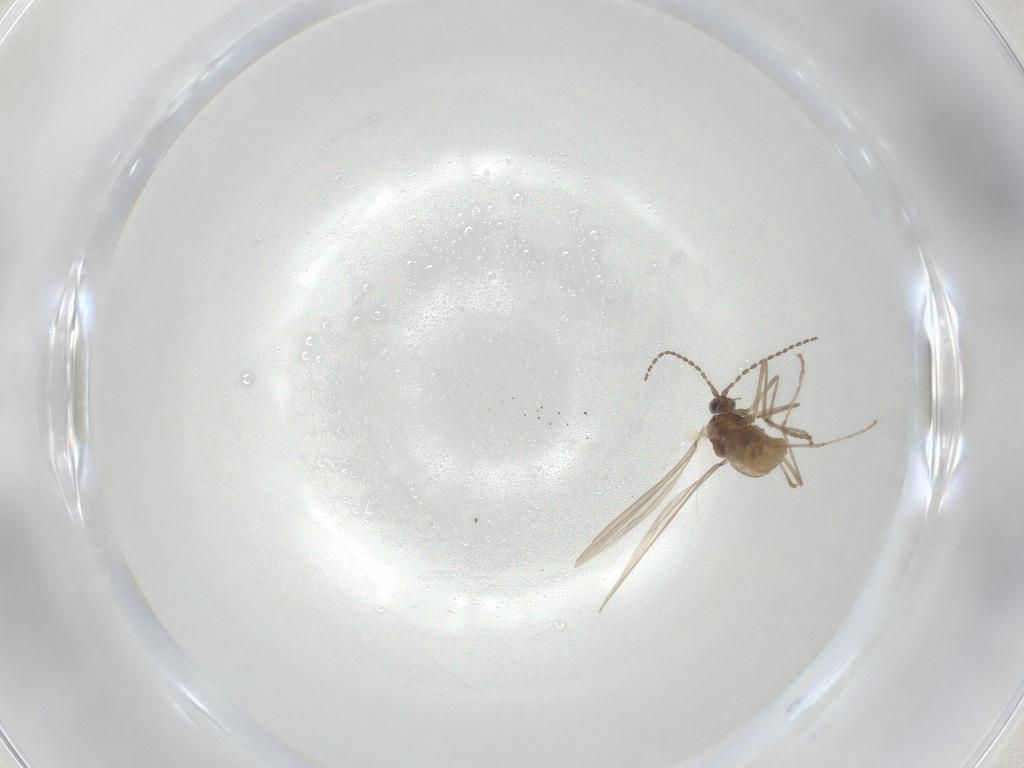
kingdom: Animalia
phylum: Arthropoda
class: Insecta
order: Diptera
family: Cecidomyiidae
